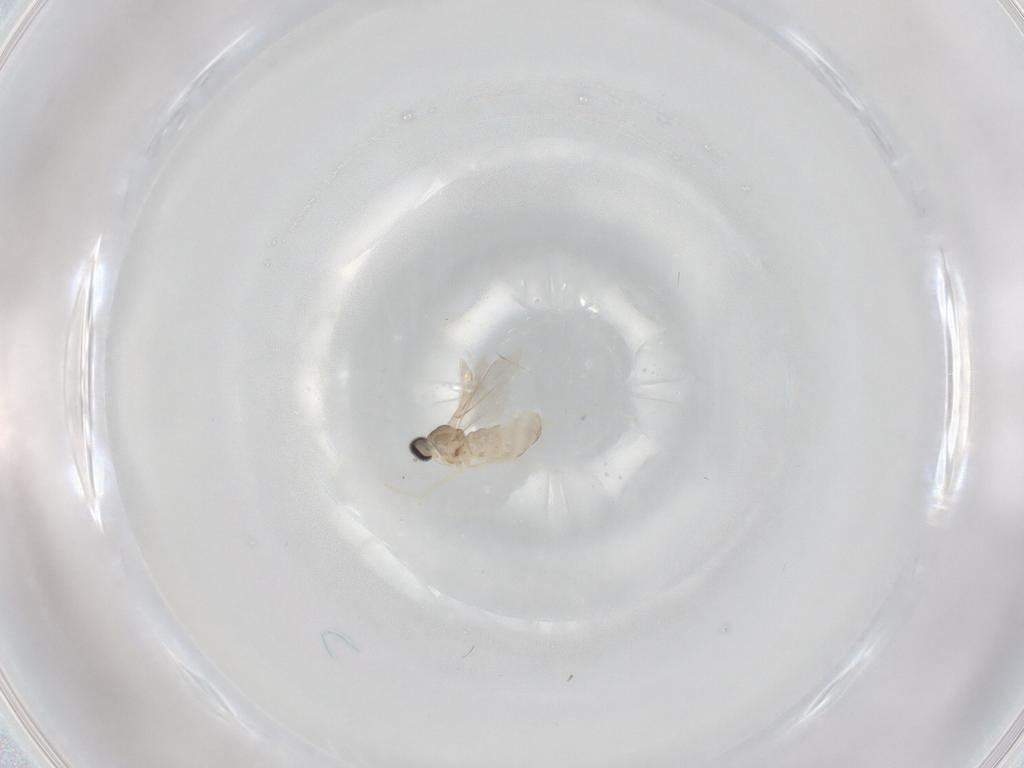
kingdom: Animalia
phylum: Arthropoda
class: Insecta
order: Diptera
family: Cecidomyiidae
